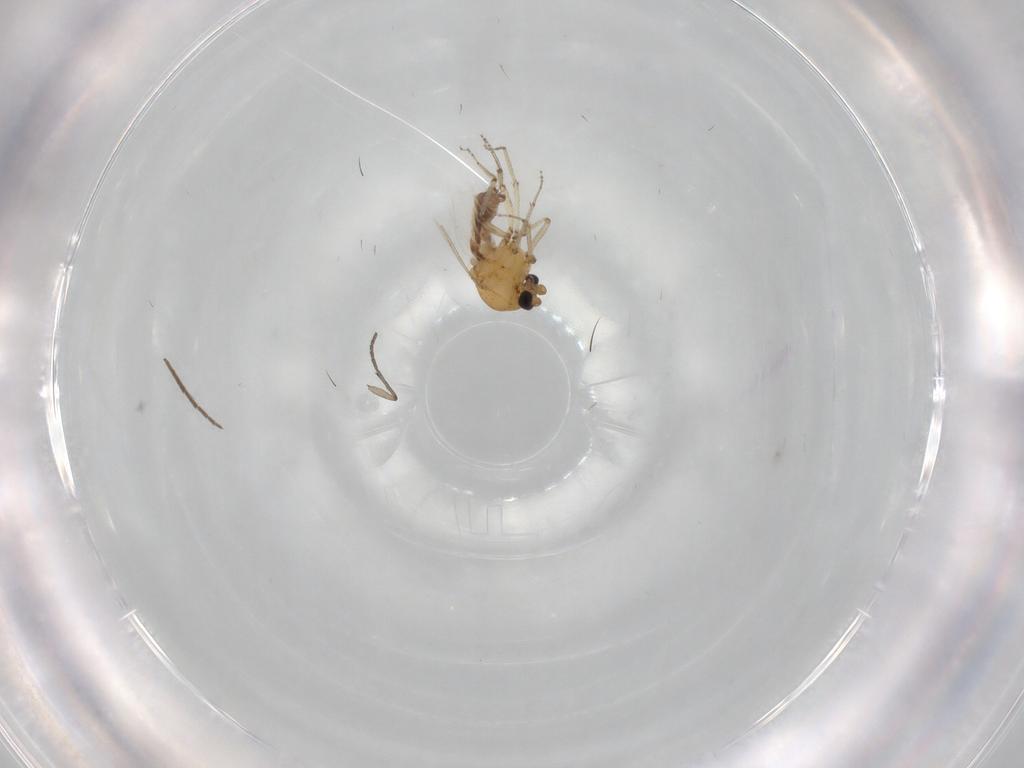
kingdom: Animalia
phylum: Arthropoda
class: Insecta
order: Diptera
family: Ceratopogonidae
